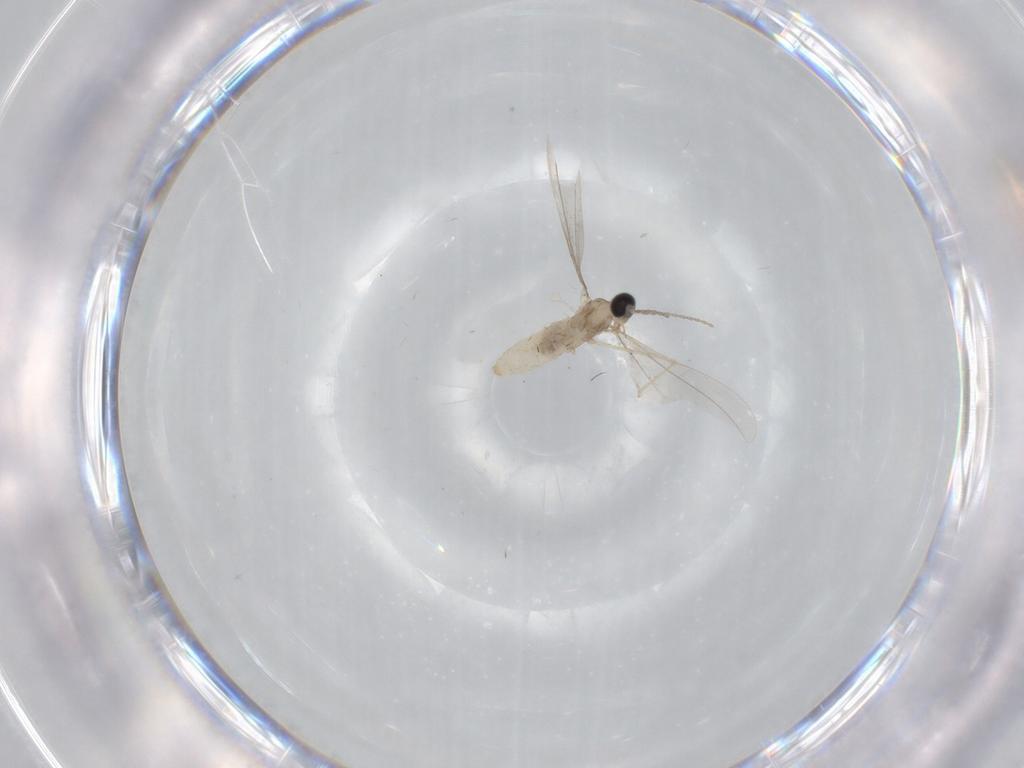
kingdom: Animalia
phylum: Arthropoda
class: Insecta
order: Diptera
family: Cecidomyiidae
